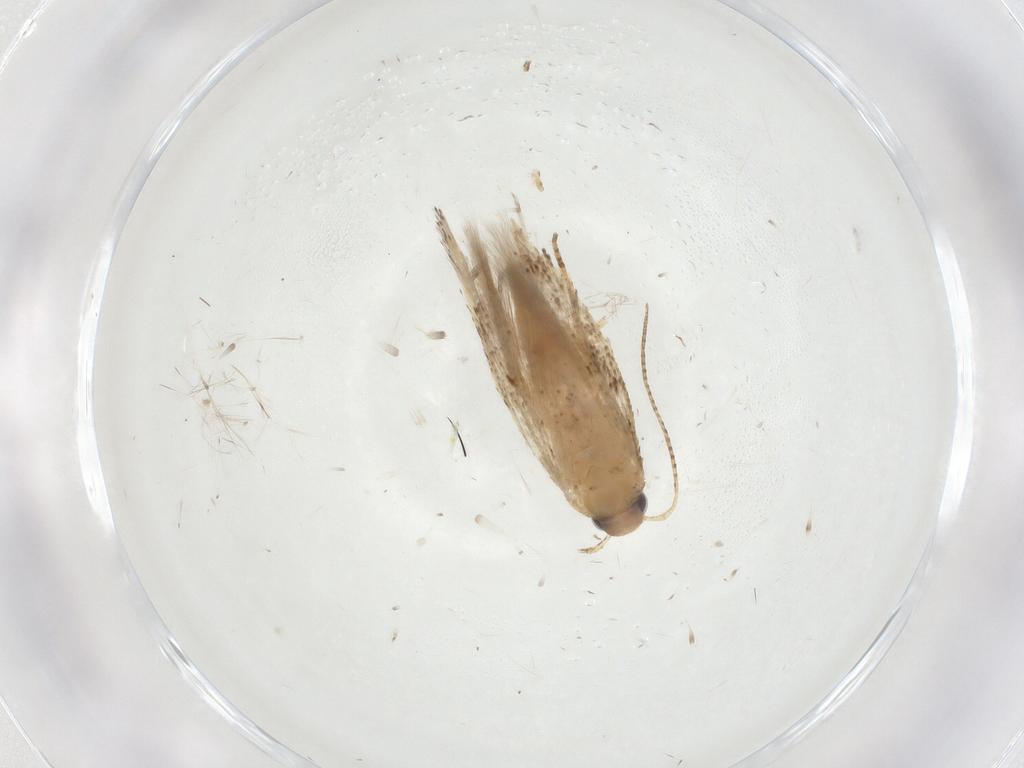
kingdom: Animalia
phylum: Arthropoda
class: Insecta
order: Lepidoptera
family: Gelechiidae
